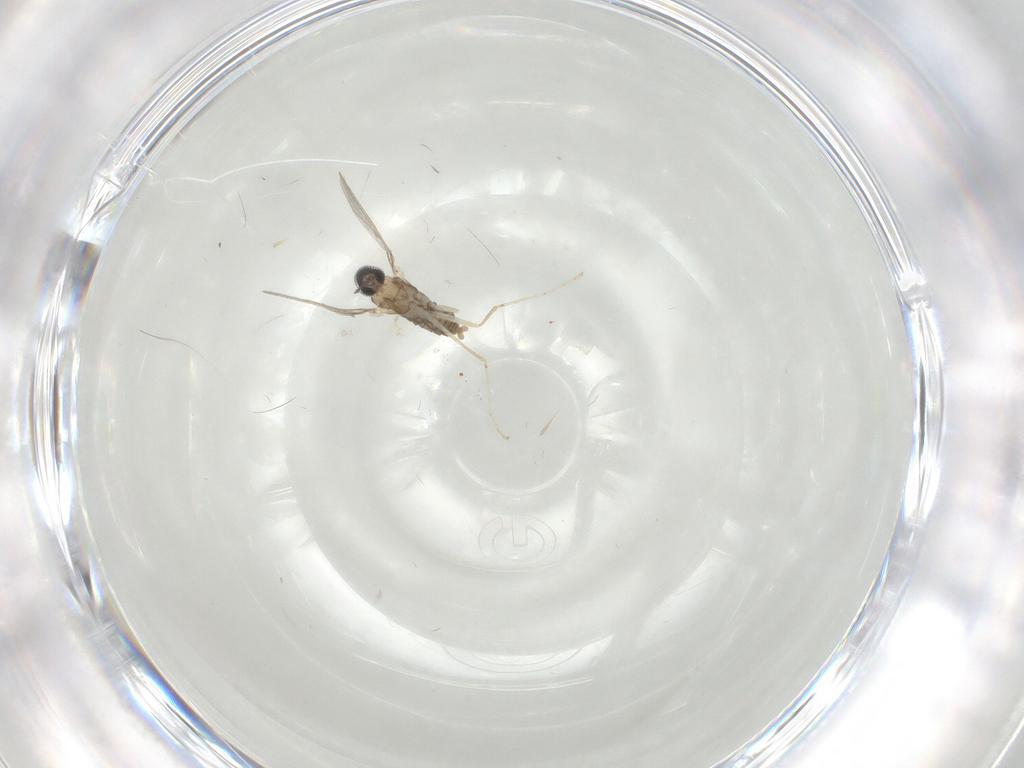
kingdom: Animalia
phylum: Arthropoda
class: Insecta
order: Diptera
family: Cecidomyiidae
